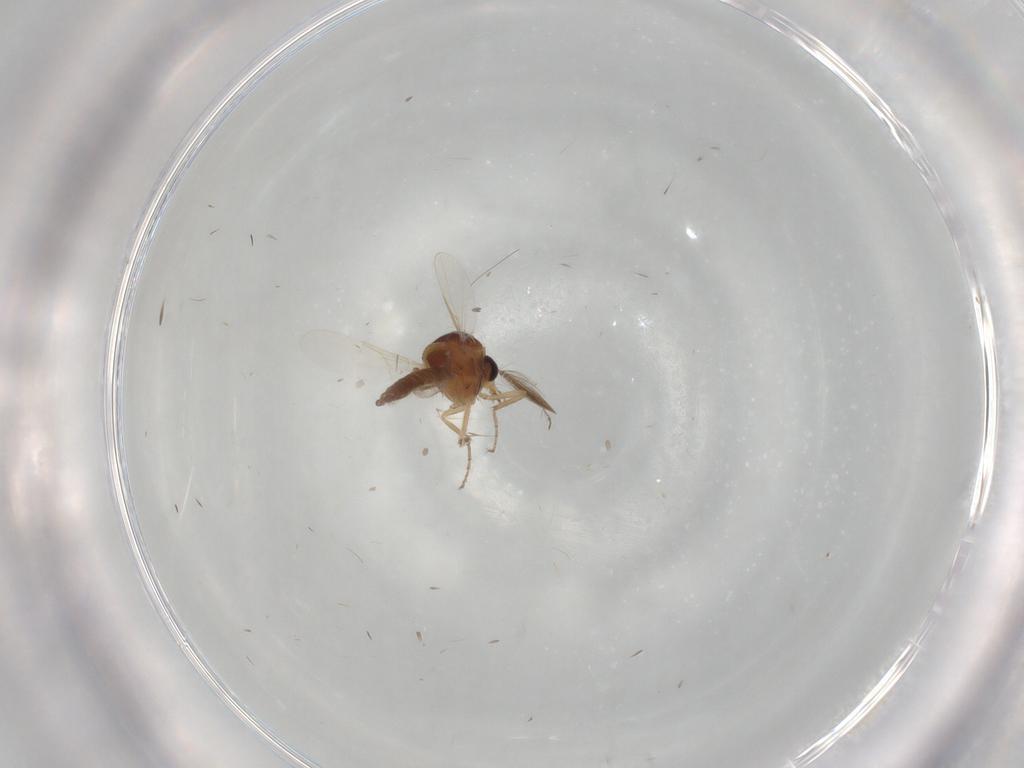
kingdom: Animalia
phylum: Arthropoda
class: Insecta
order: Diptera
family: Ceratopogonidae
